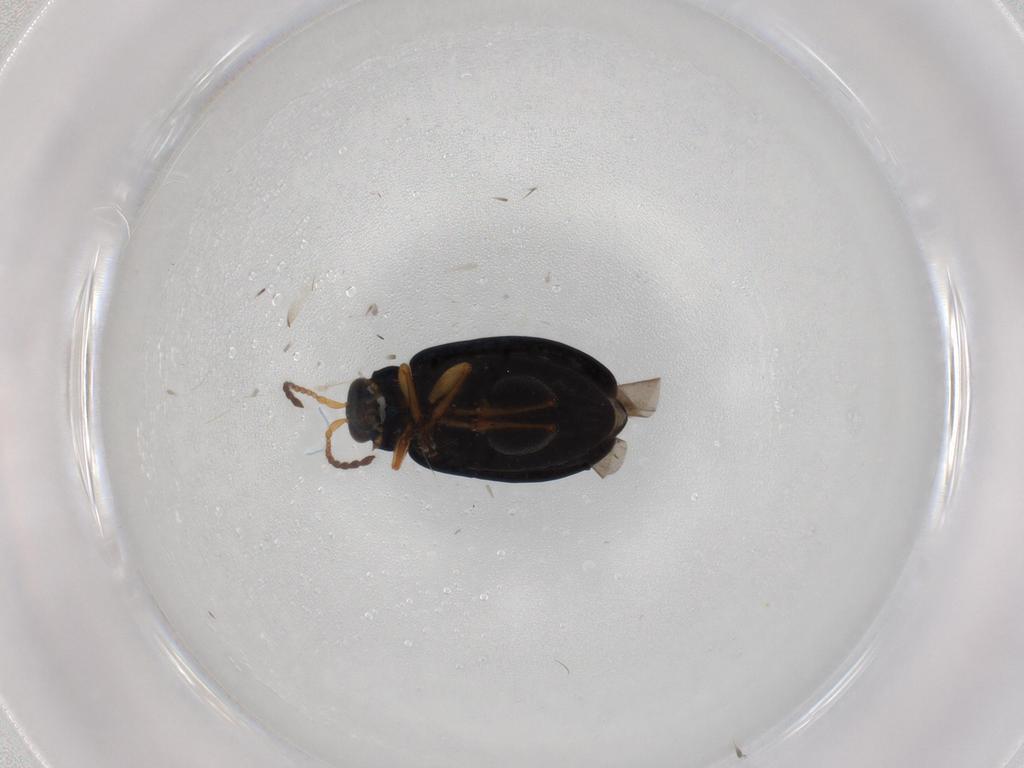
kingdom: Animalia
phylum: Arthropoda
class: Insecta
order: Coleoptera
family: Chrysomelidae
